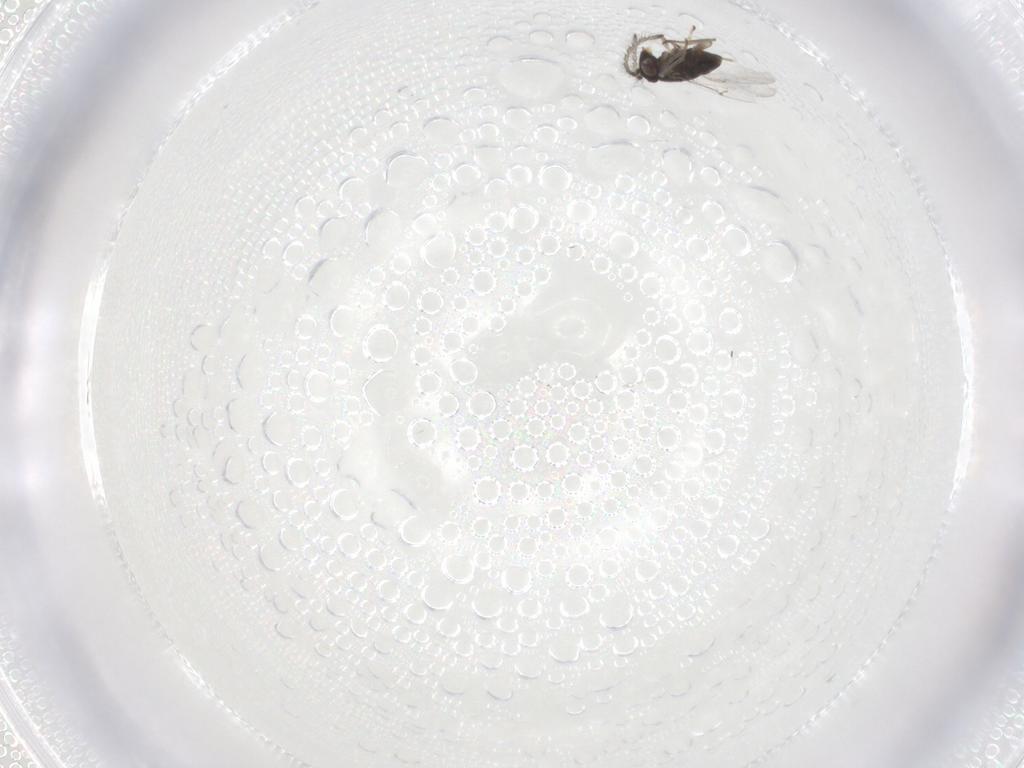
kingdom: Animalia
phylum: Arthropoda
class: Insecta
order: Hymenoptera
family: Encyrtidae
